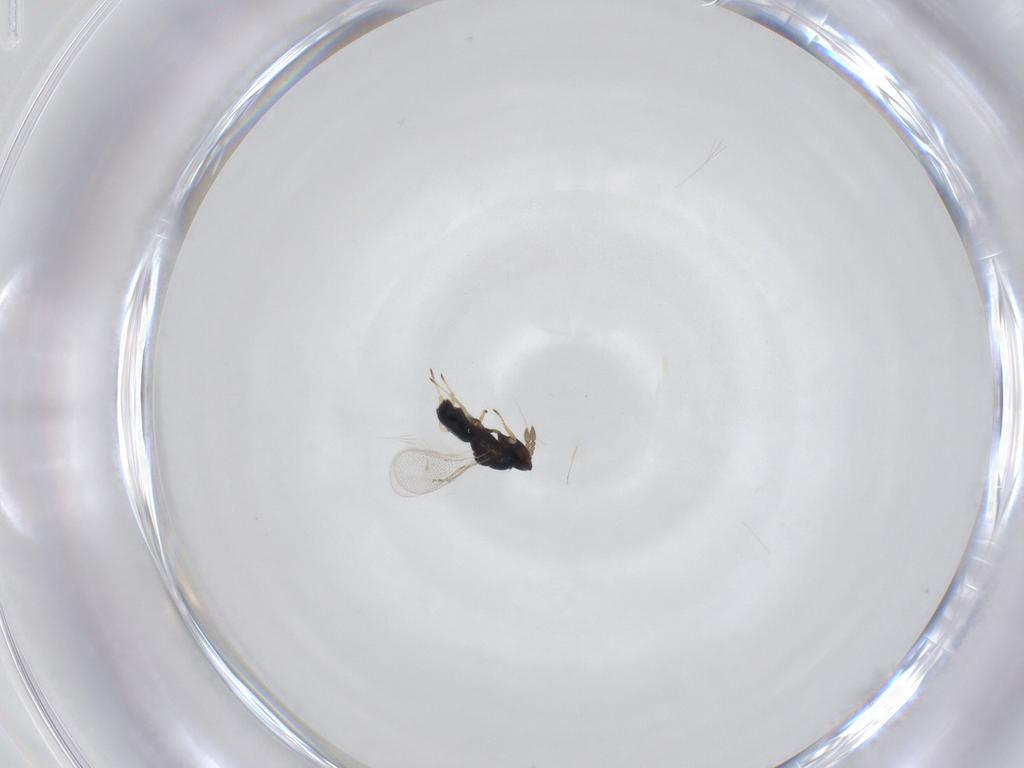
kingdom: Animalia
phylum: Arthropoda
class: Insecta
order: Hymenoptera
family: Eulophidae
